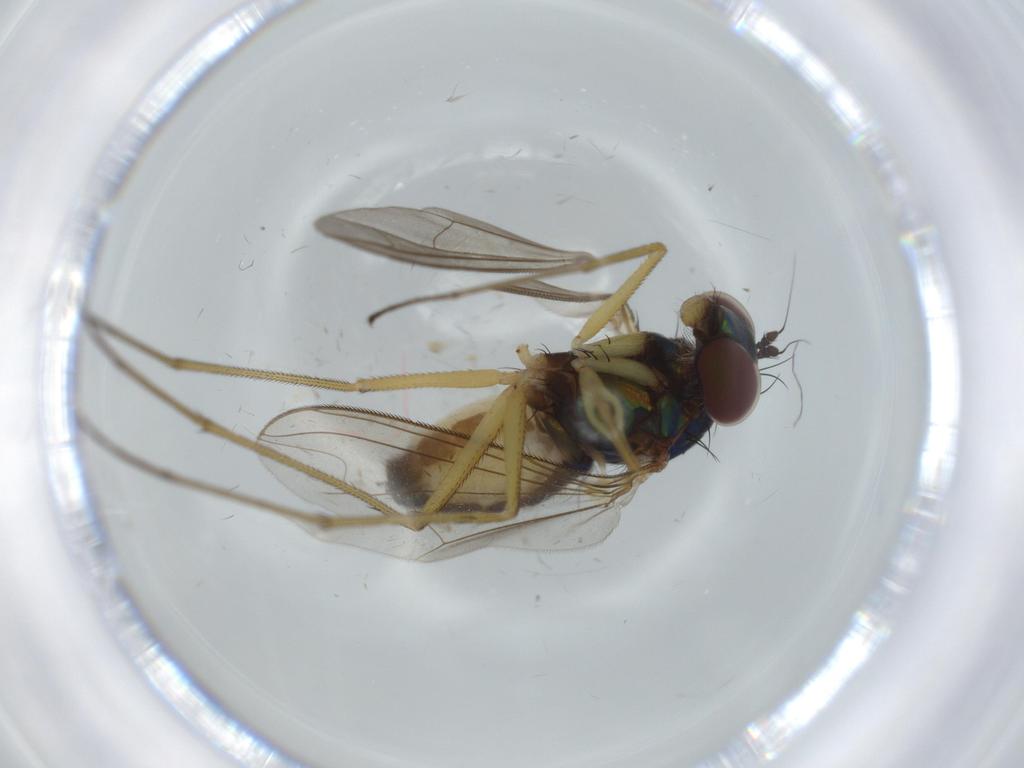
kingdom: Animalia
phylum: Arthropoda
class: Insecta
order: Diptera
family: Dolichopodidae
